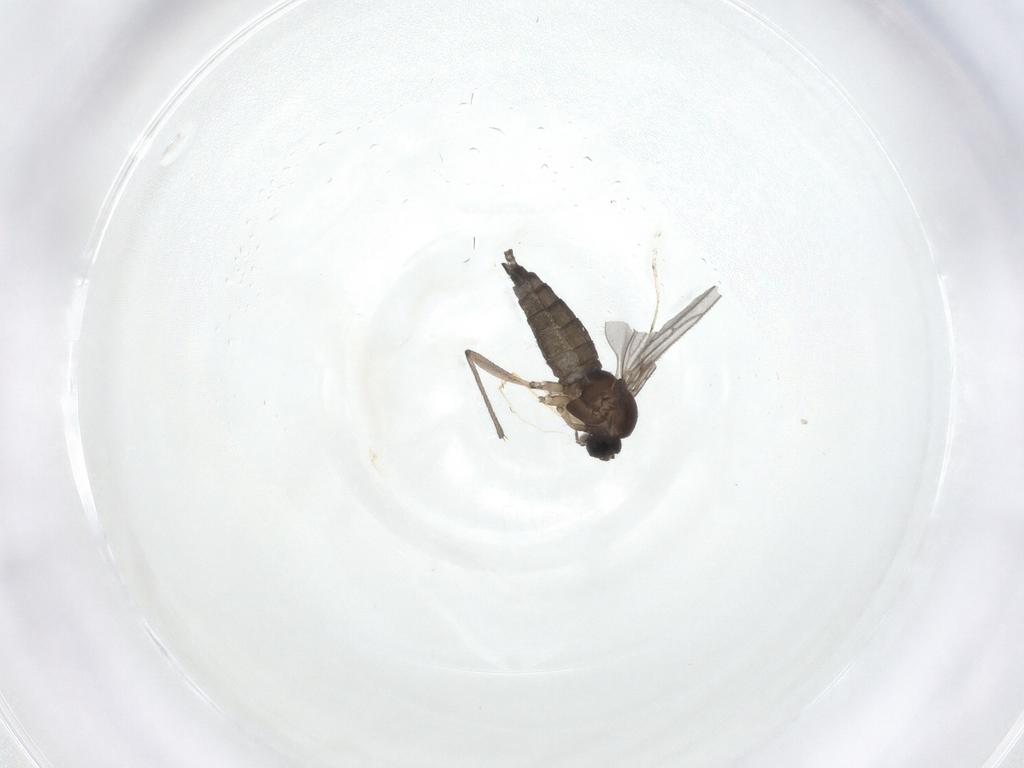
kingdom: Animalia
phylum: Arthropoda
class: Insecta
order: Diptera
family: Sciaridae
